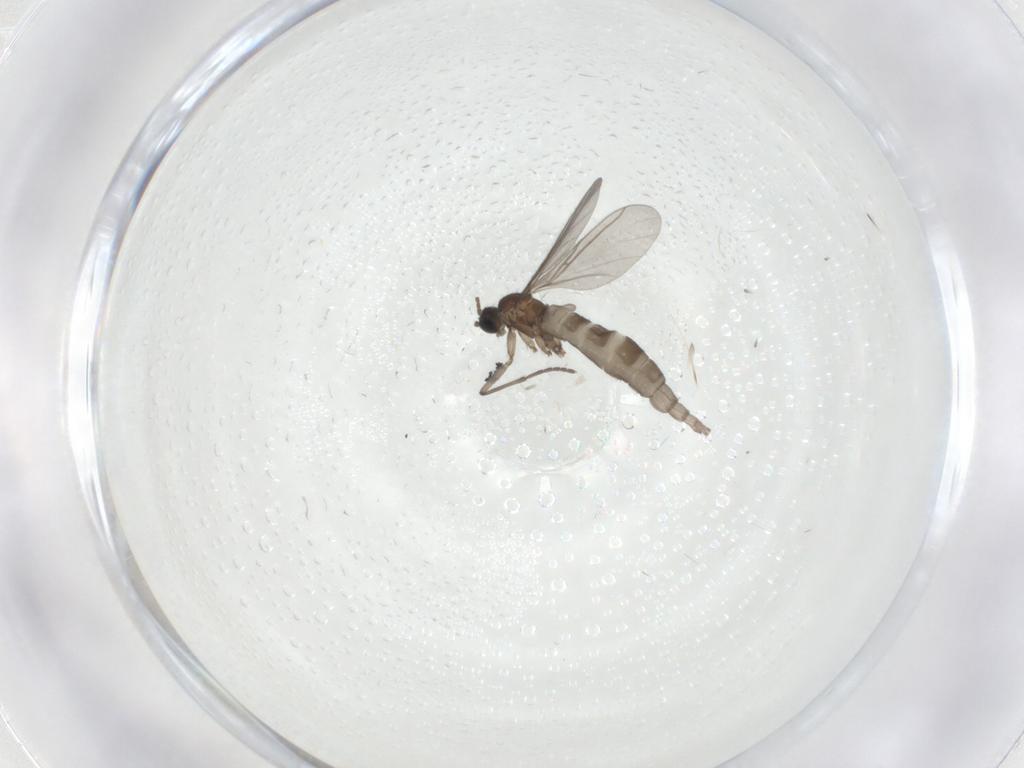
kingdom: Animalia
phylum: Arthropoda
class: Insecta
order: Diptera
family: Sciaridae
